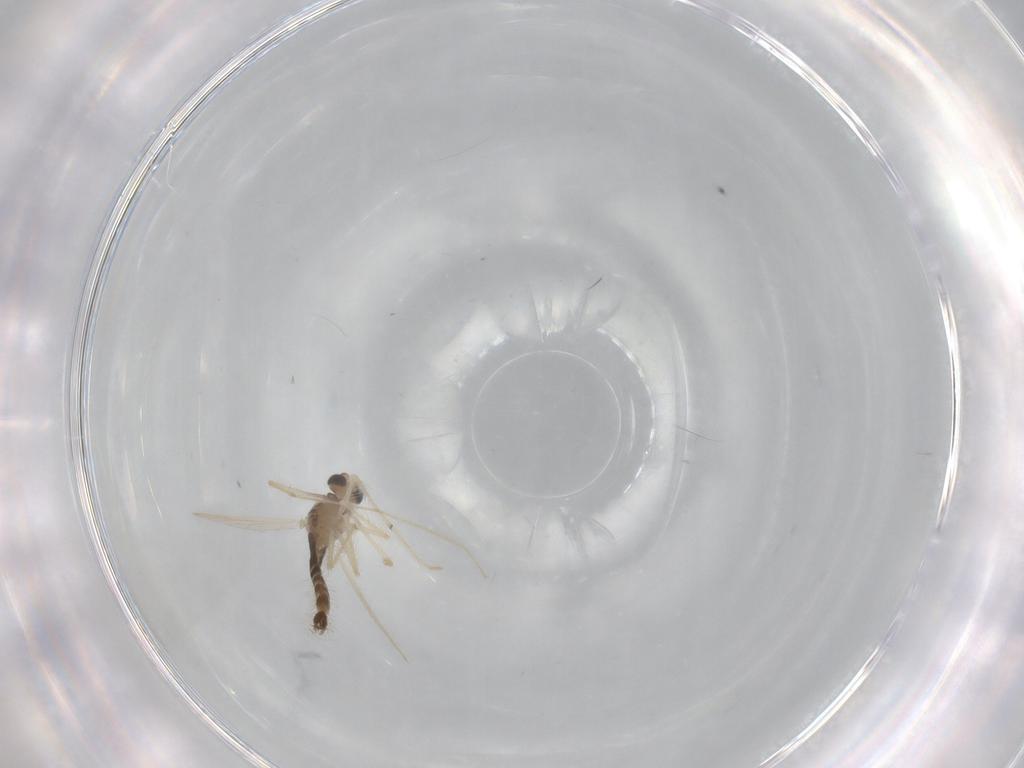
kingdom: Animalia
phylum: Arthropoda
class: Insecta
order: Diptera
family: Chironomidae
